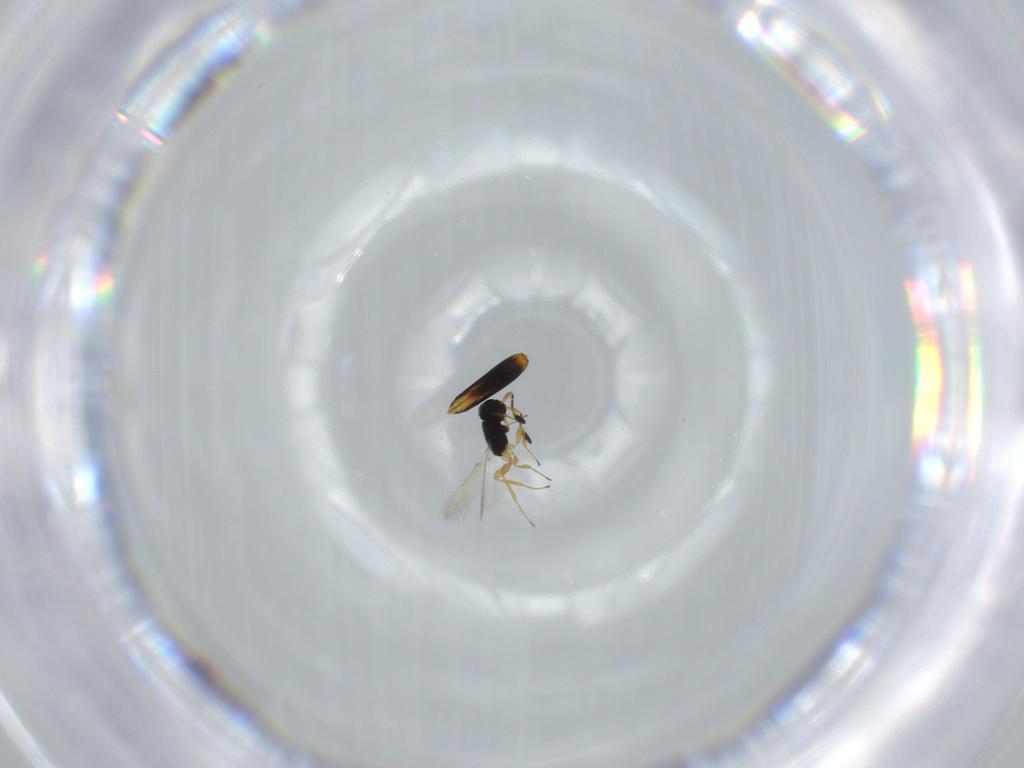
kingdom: Animalia
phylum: Arthropoda
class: Insecta
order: Hymenoptera
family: Scelionidae
